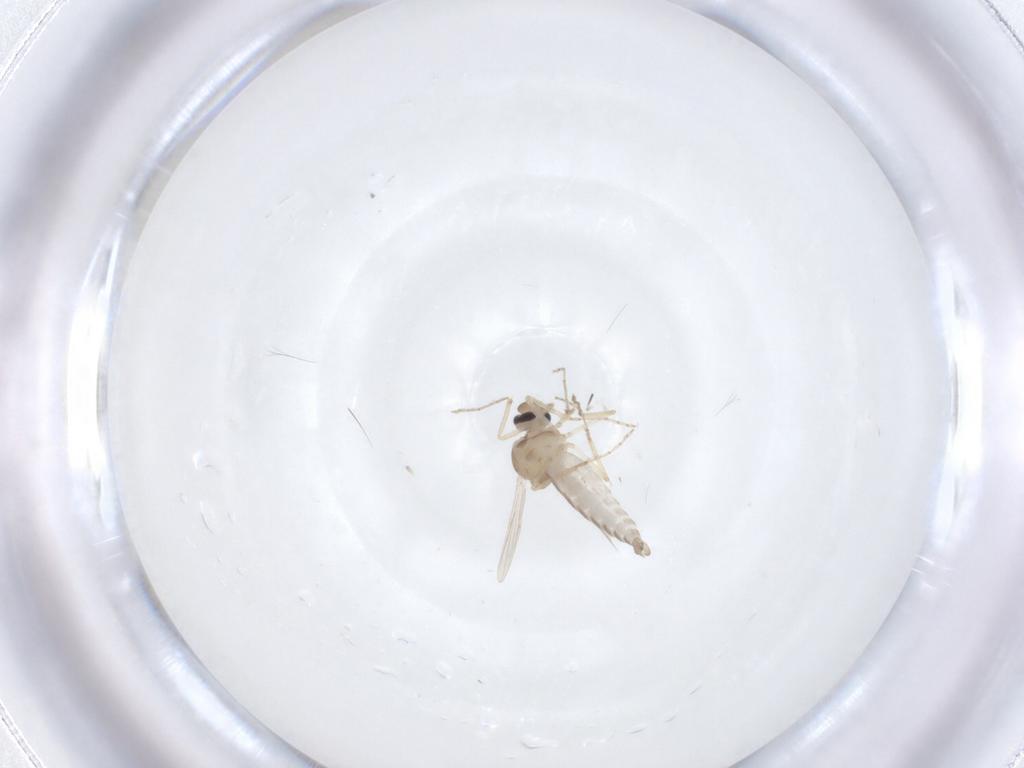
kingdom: Animalia
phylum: Arthropoda
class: Insecta
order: Diptera
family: Ceratopogonidae
